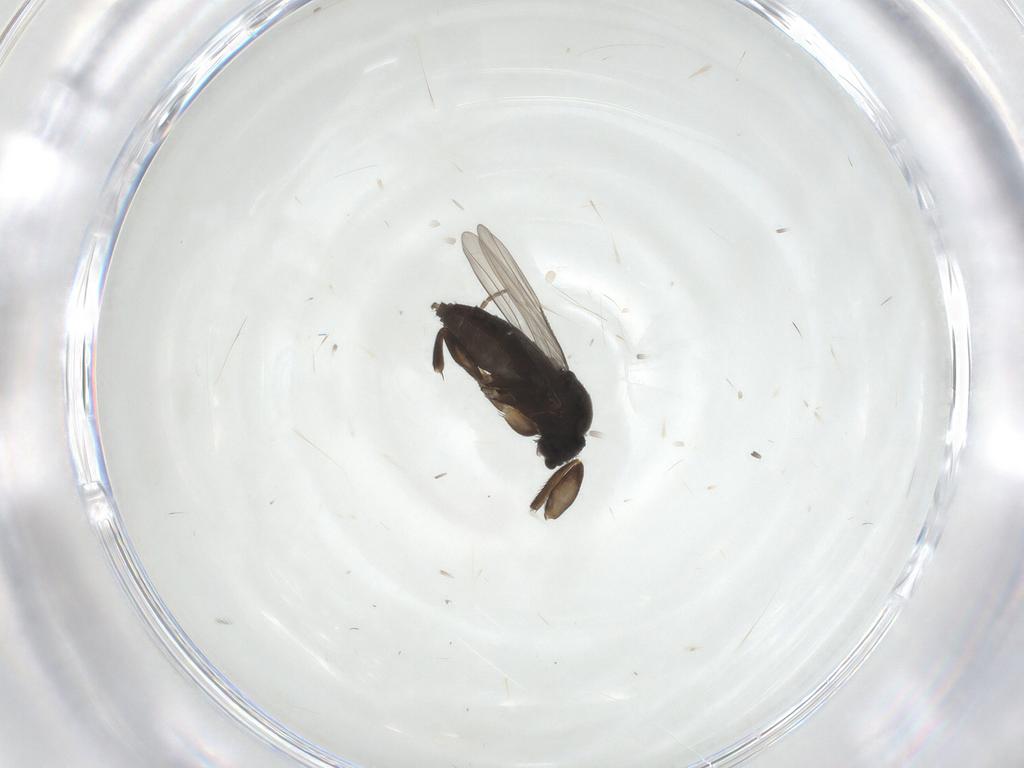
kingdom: Animalia
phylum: Arthropoda
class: Insecta
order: Diptera
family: Phoridae
